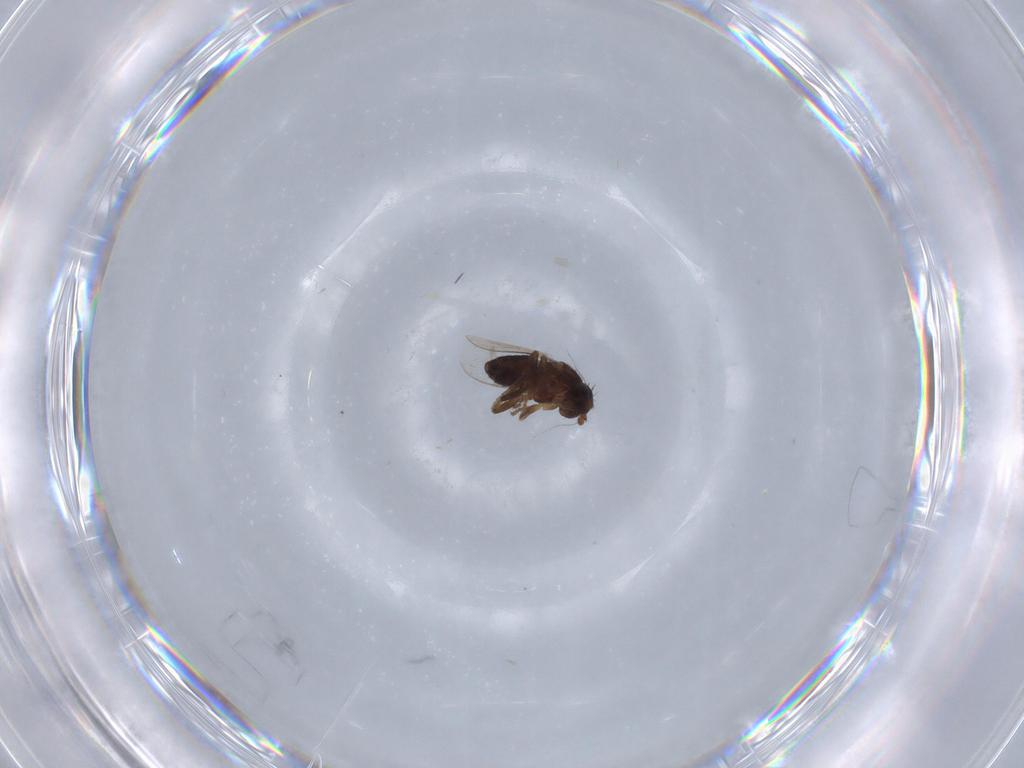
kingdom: Animalia
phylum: Arthropoda
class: Insecta
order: Diptera
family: Sphaeroceridae
